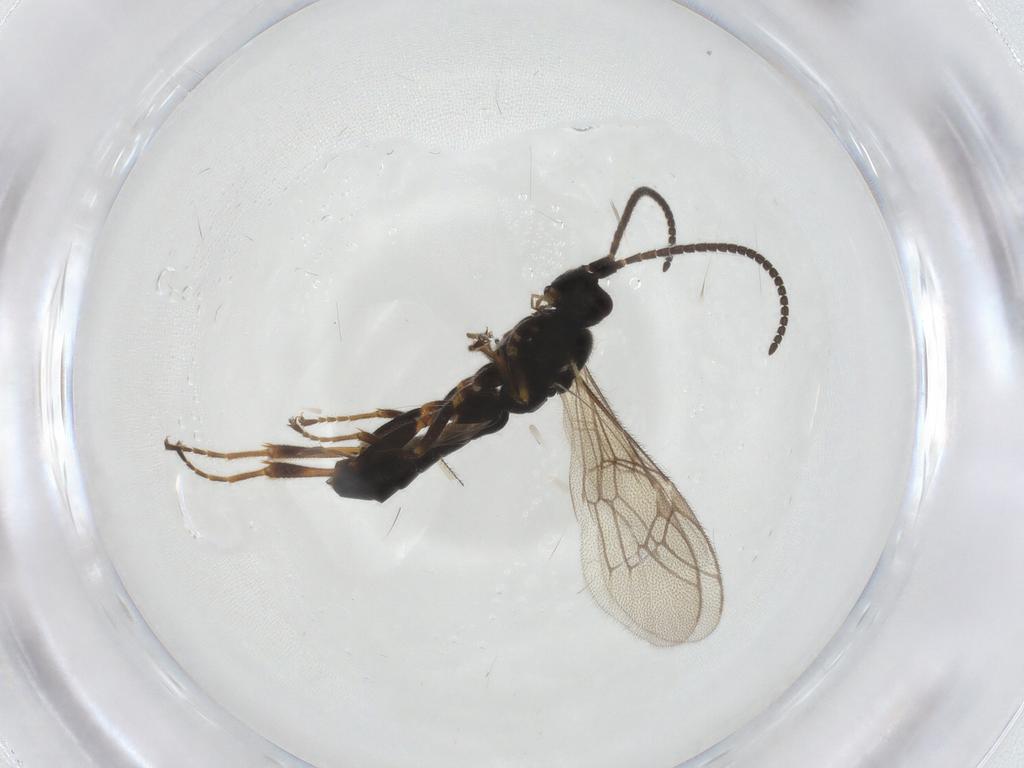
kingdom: Animalia
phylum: Arthropoda
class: Insecta
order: Hymenoptera
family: Ichneumonidae
